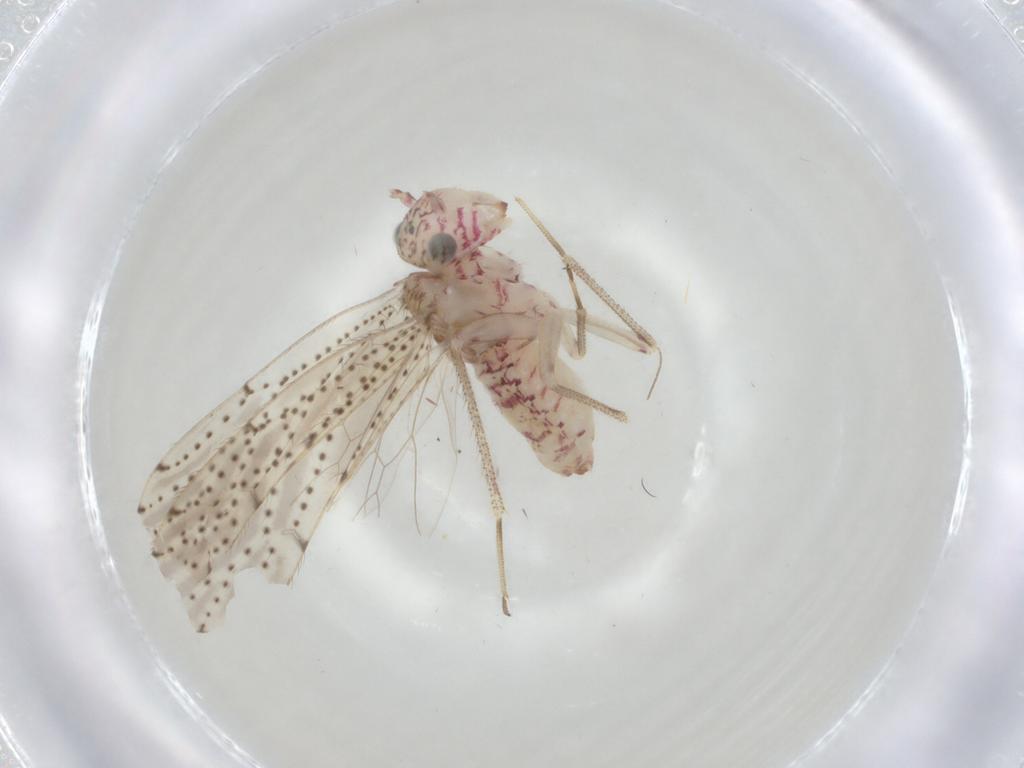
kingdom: Animalia
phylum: Arthropoda
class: Insecta
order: Psocodea
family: Philotarsidae
